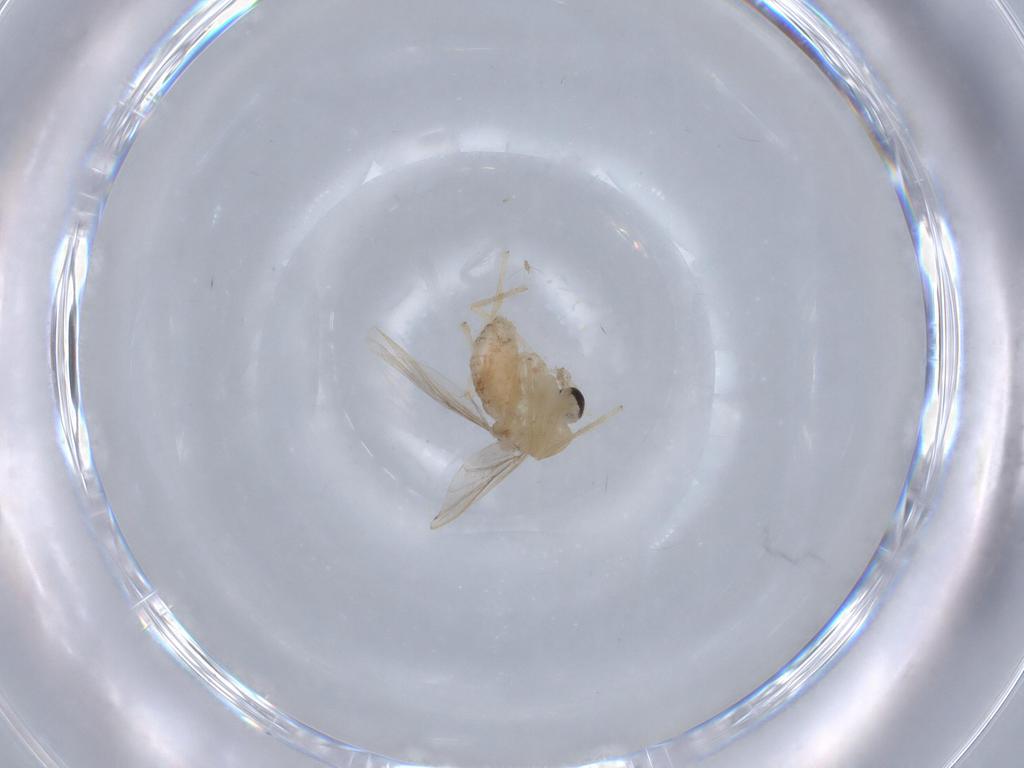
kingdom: Animalia
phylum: Arthropoda
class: Insecta
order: Diptera
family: Chironomidae
